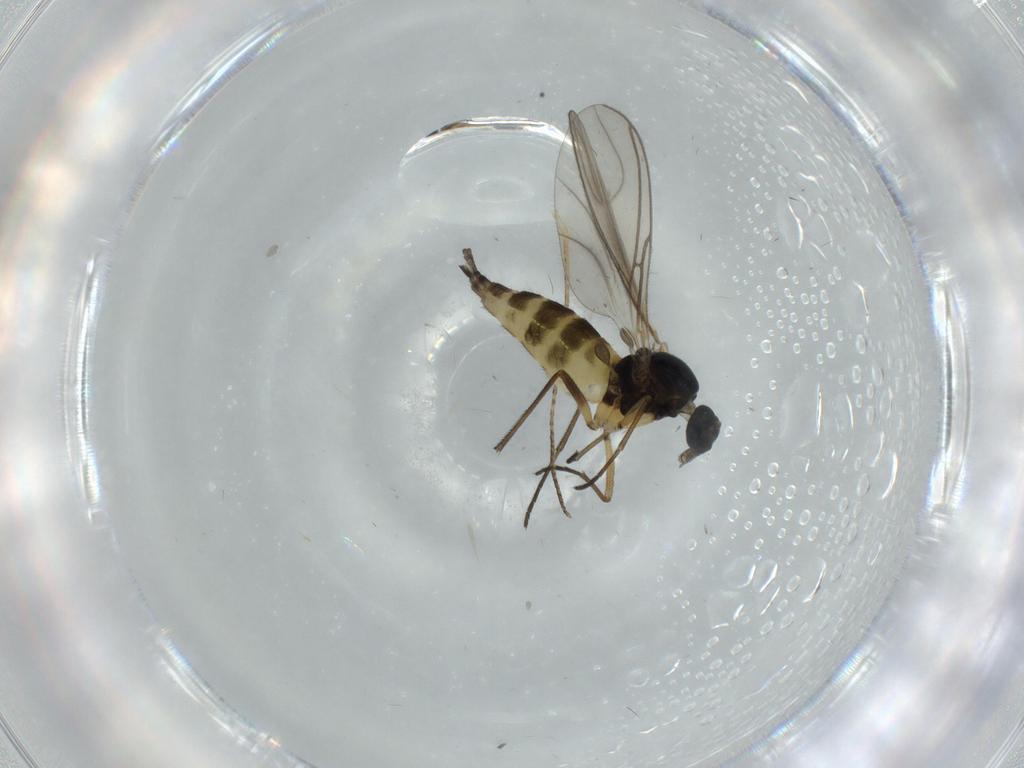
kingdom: Animalia
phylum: Arthropoda
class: Insecta
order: Diptera
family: Sciaridae
